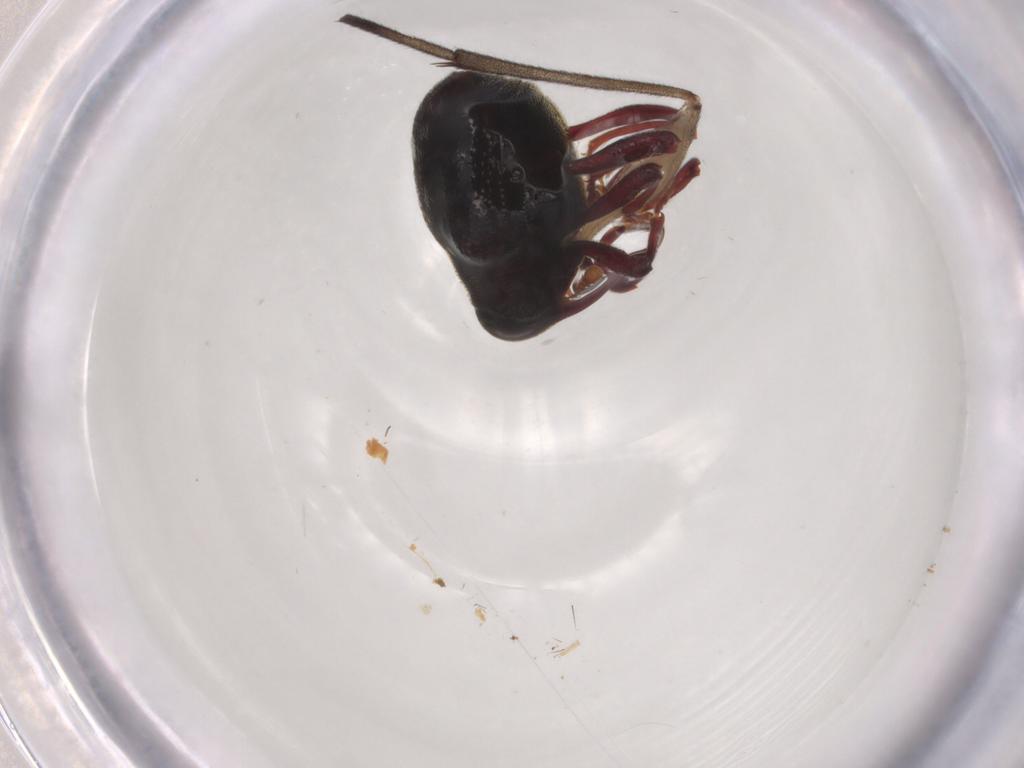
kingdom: Animalia
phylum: Arthropoda
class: Insecta
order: Coleoptera
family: Curculionidae
